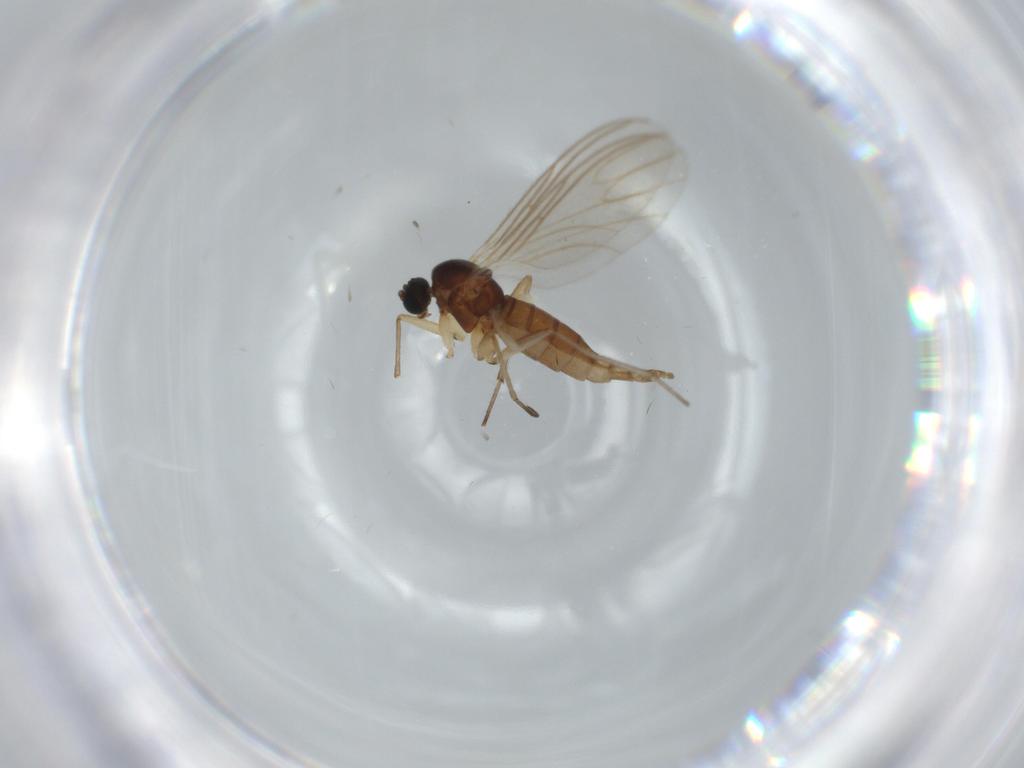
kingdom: Animalia
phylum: Arthropoda
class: Insecta
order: Diptera
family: Sciaridae
